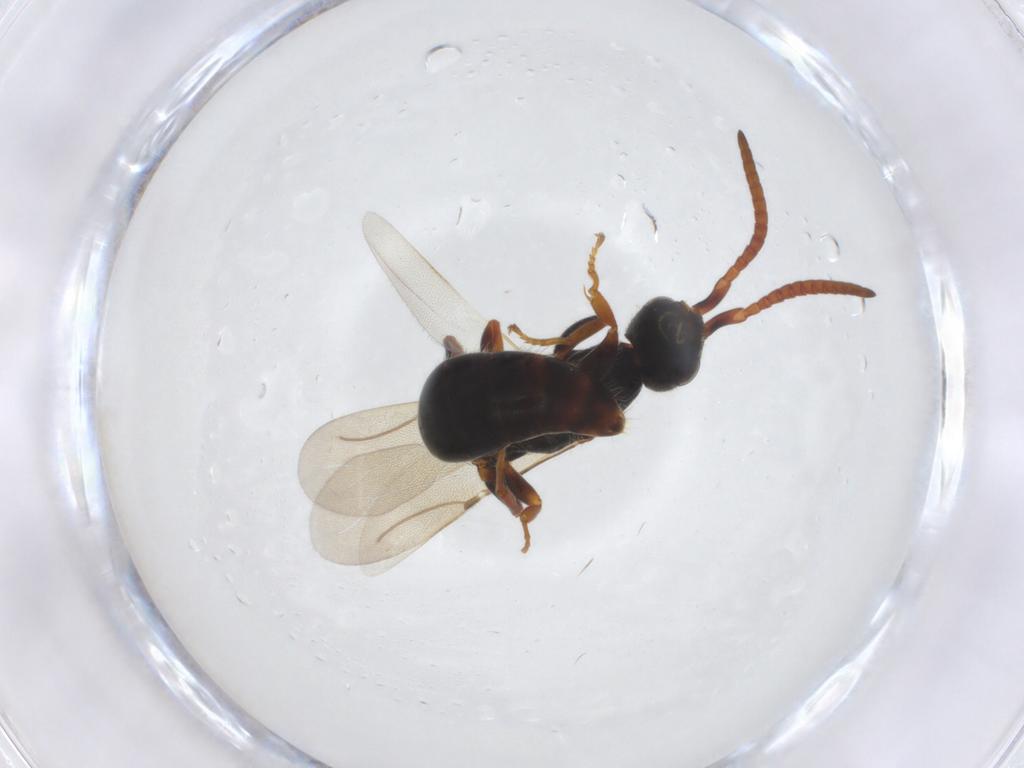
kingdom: Animalia
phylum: Arthropoda
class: Insecta
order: Hymenoptera
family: Bethylidae
